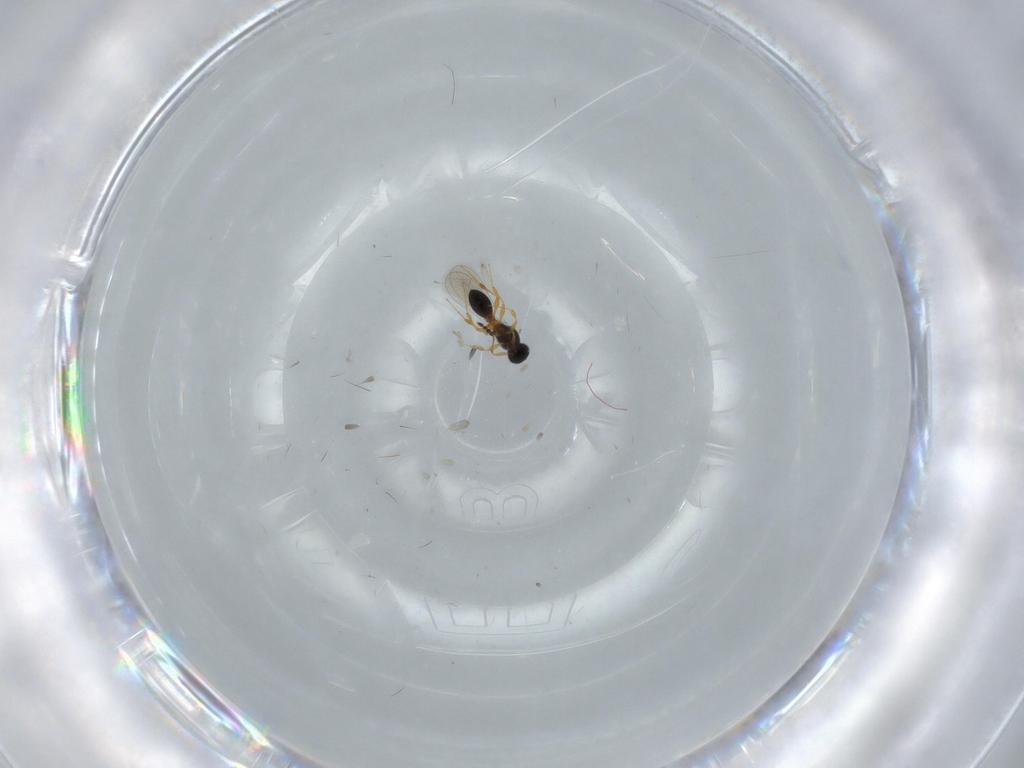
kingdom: Animalia
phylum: Arthropoda
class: Insecta
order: Hymenoptera
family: Platygastridae
